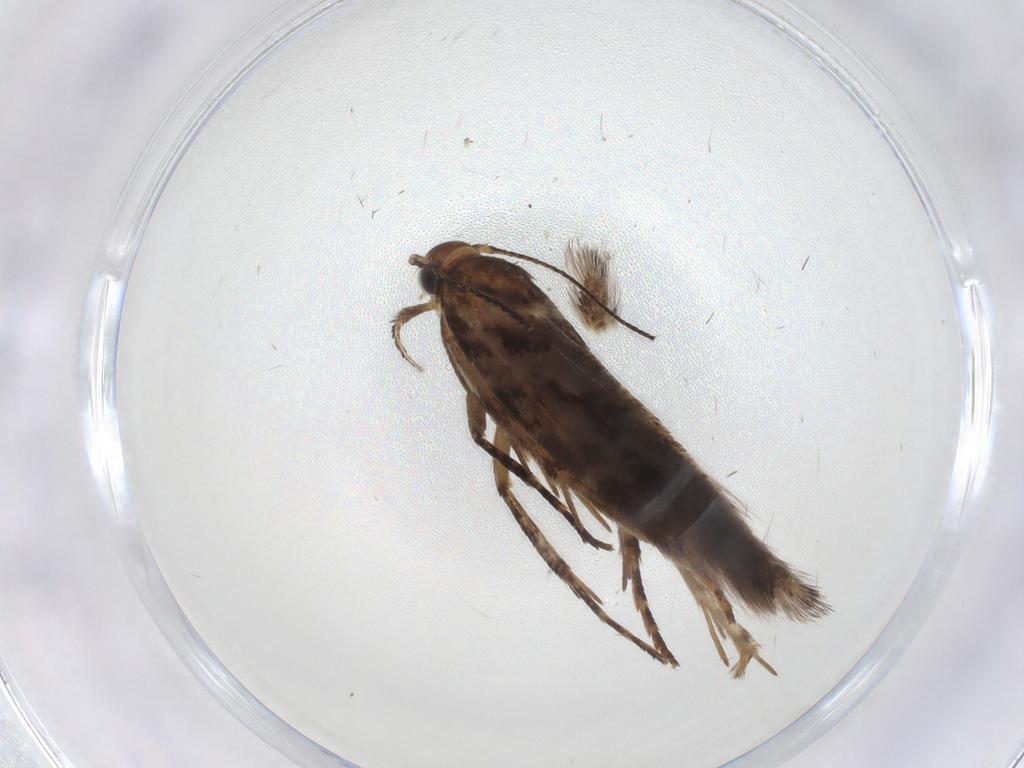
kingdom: Animalia
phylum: Arthropoda
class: Insecta
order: Lepidoptera
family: Gelechiidae
